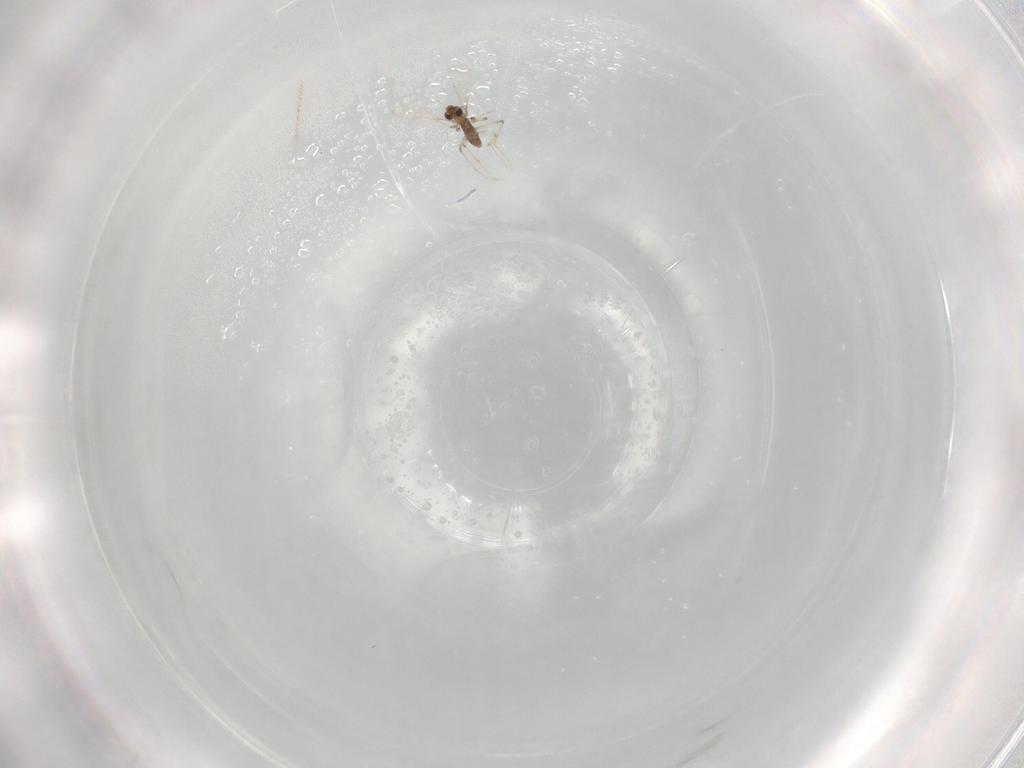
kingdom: Animalia
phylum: Arthropoda
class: Insecta
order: Diptera
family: Chironomidae
